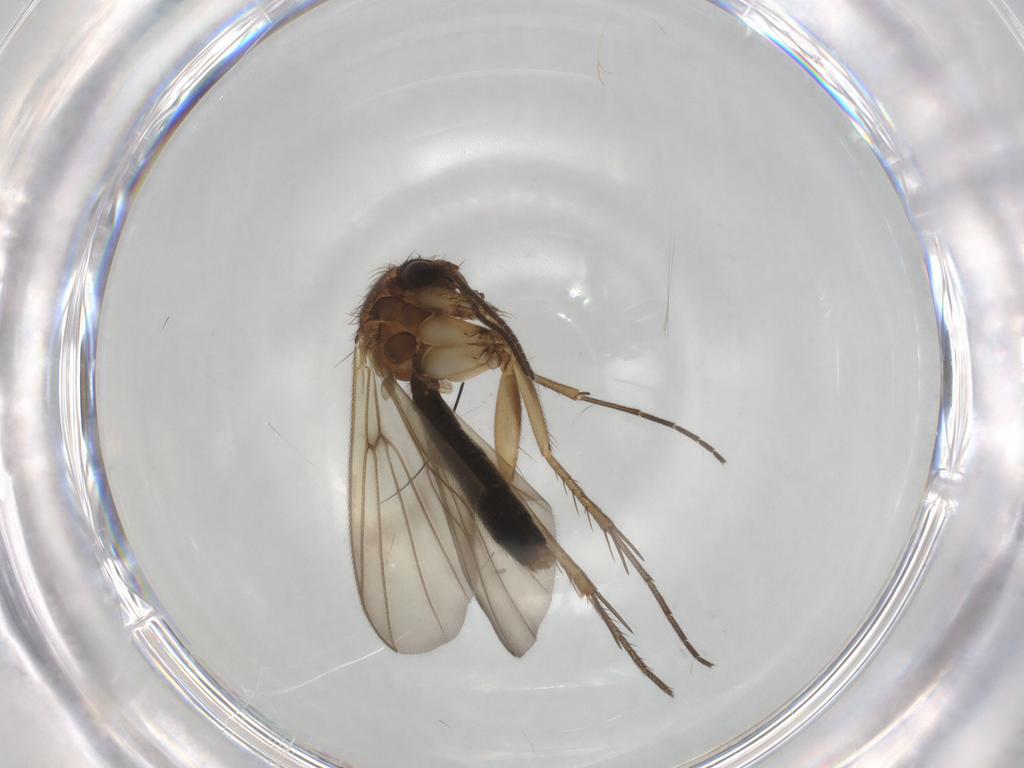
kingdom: Animalia
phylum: Arthropoda
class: Insecta
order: Diptera
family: Mycetophilidae
